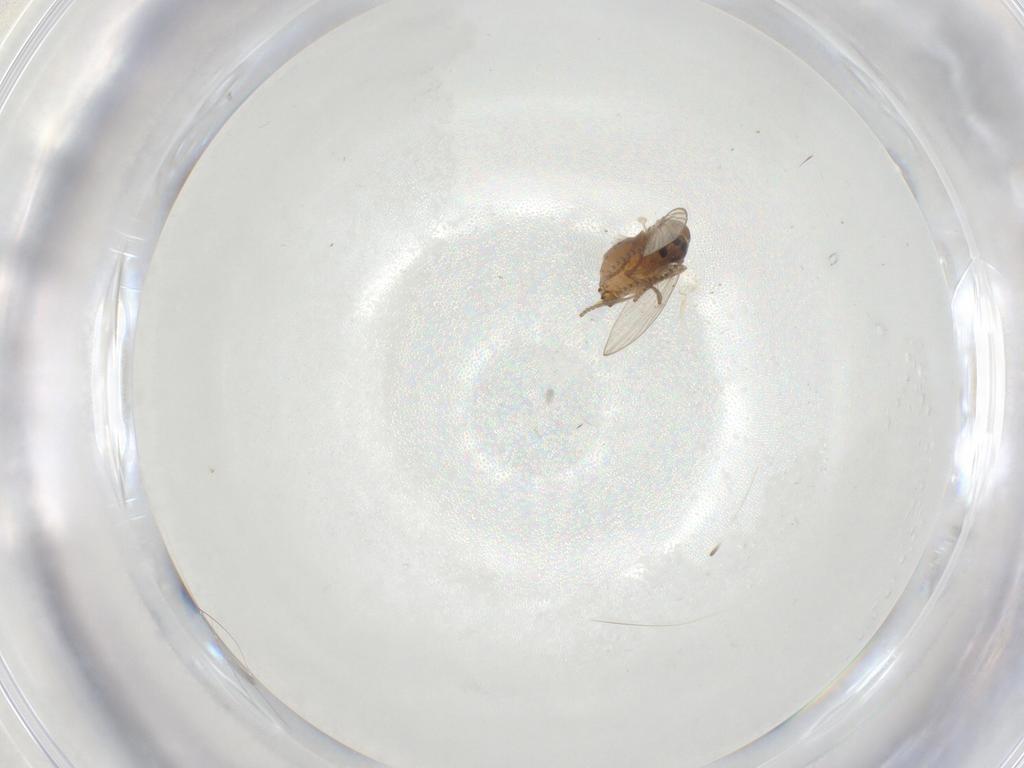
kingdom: Animalia
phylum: Arthropoda
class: Insecta
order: Diptera
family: Psychodidae
